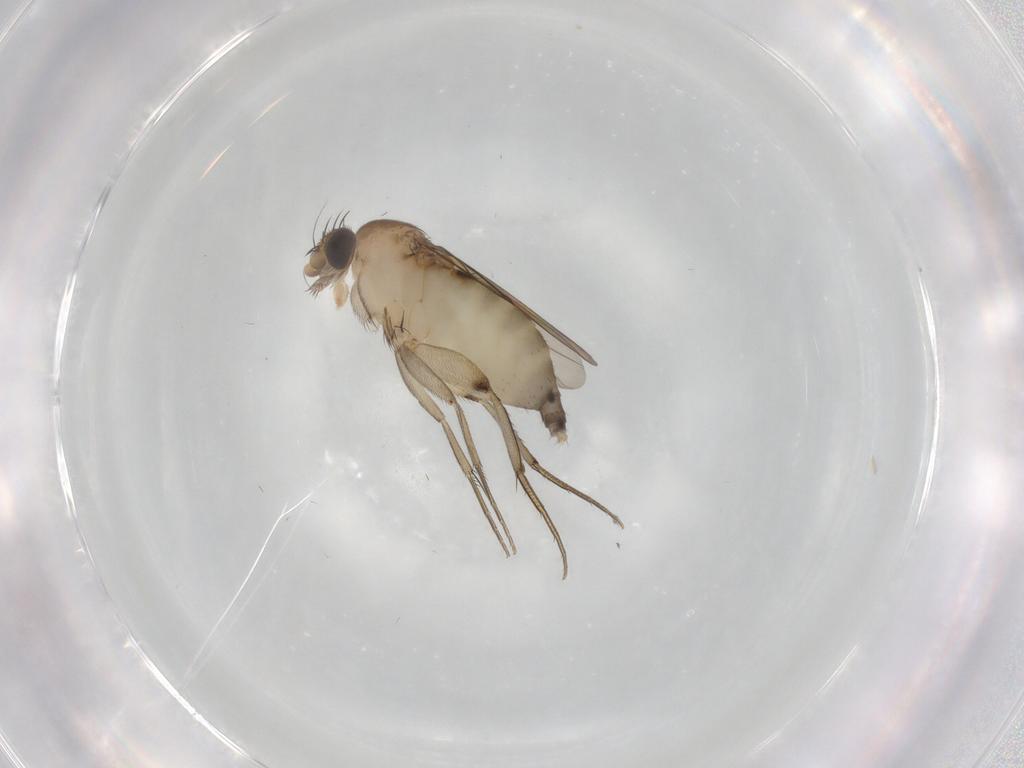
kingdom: Animalia
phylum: Arthropoda
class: Insecta
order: Diptera
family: Phoridae
